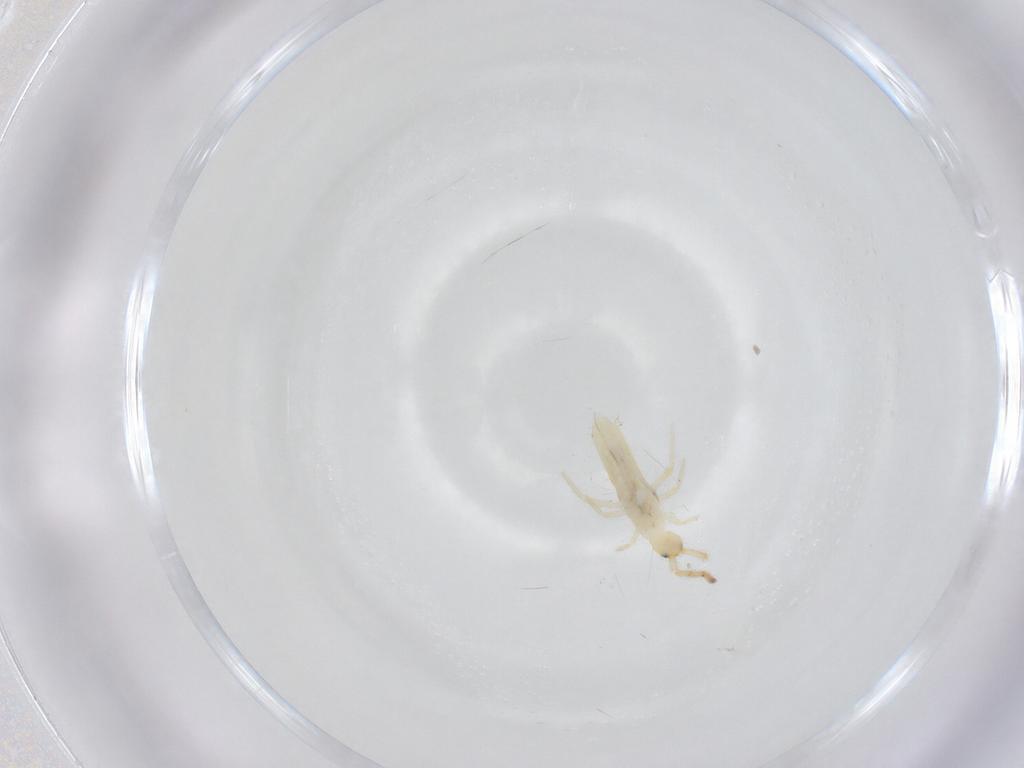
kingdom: Animalia
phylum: Arthropoda
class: Collembola
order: Entomobryomorpha
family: Entomobryidae
